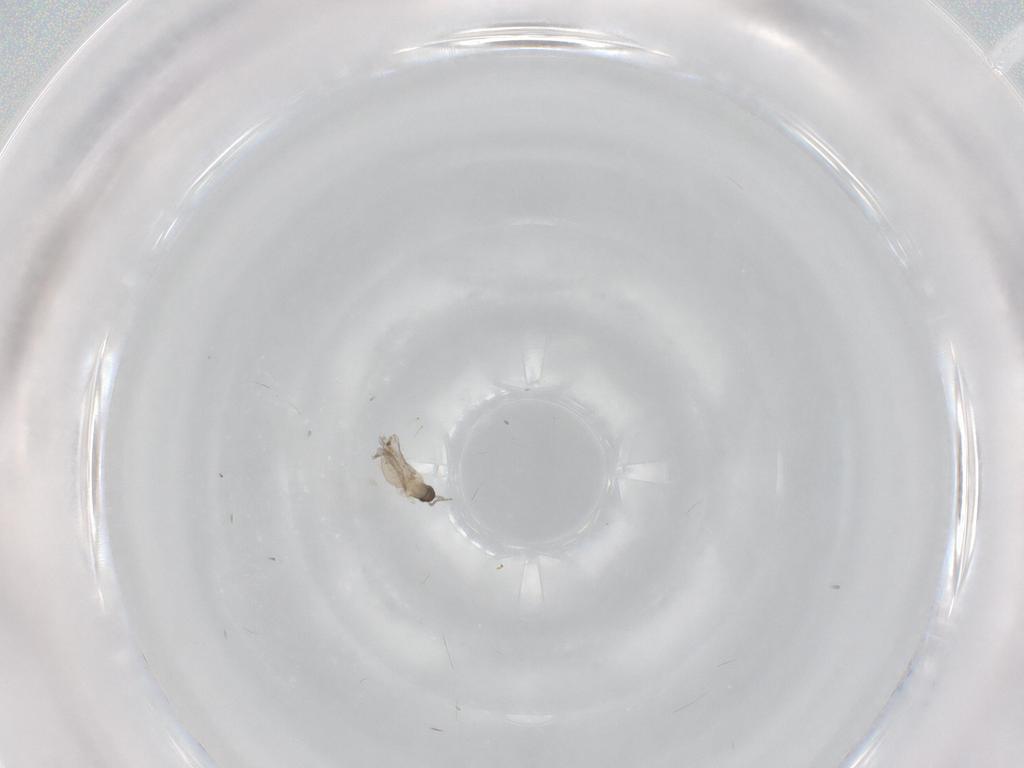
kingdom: Animalia
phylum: Arthropoda
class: Insecta
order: Diptera
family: Cecidomyiidae
